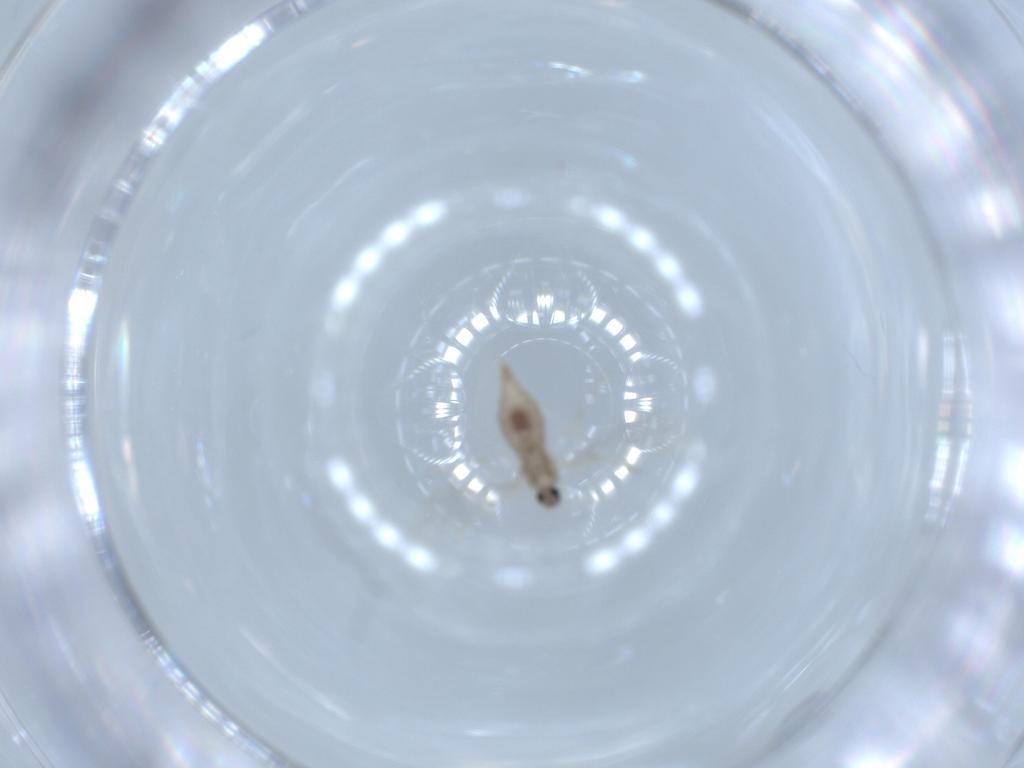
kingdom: Animalia
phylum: Arthropoda
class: Insecta
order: Diptera
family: Cecidomyiidae
